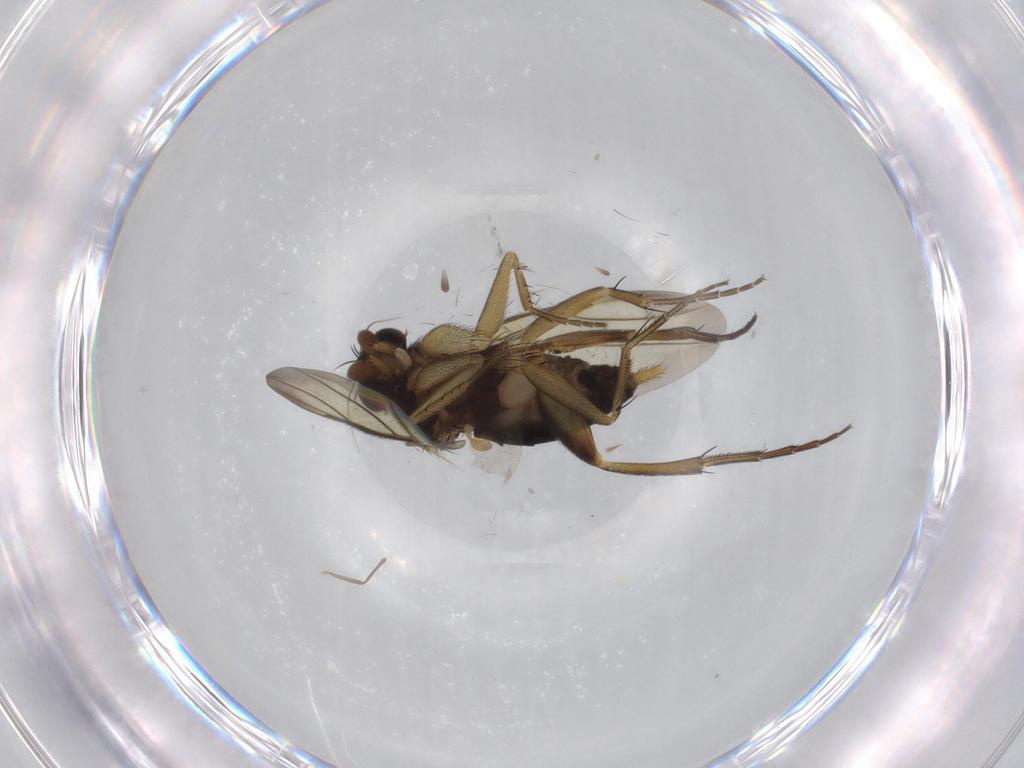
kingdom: Animalia
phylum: Arthropoda
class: Insecta
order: Diptera
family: Phoridae
